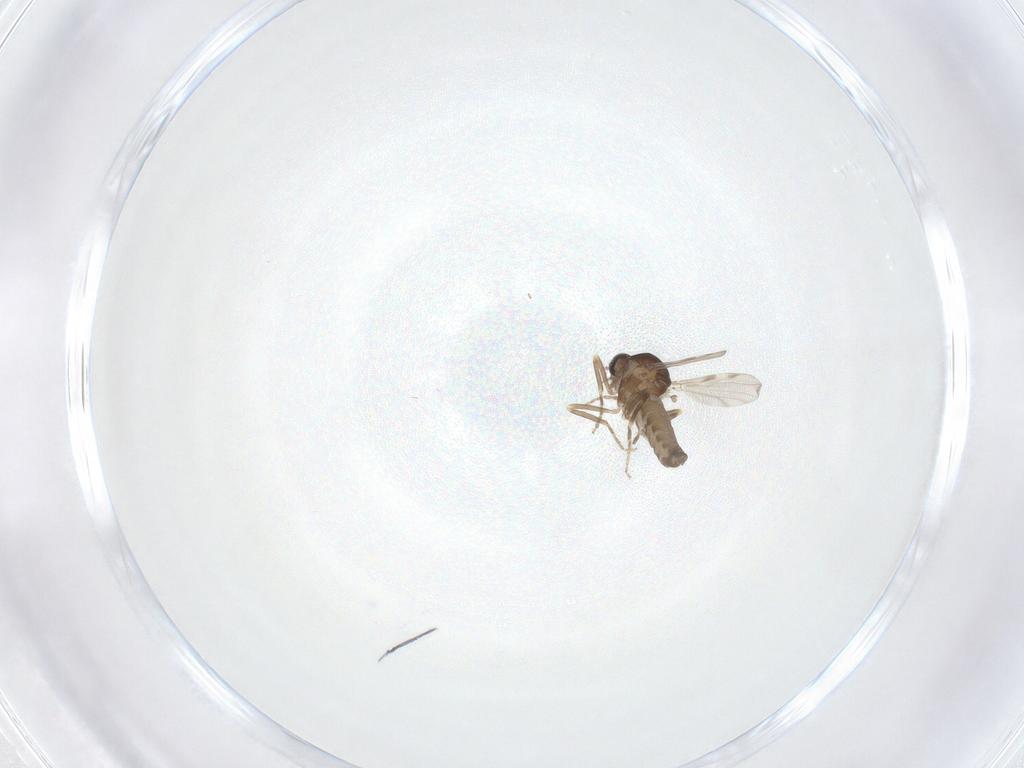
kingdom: Animalia
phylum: Arthropoda
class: Insecta
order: Diptera
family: Ceratopogonidae
